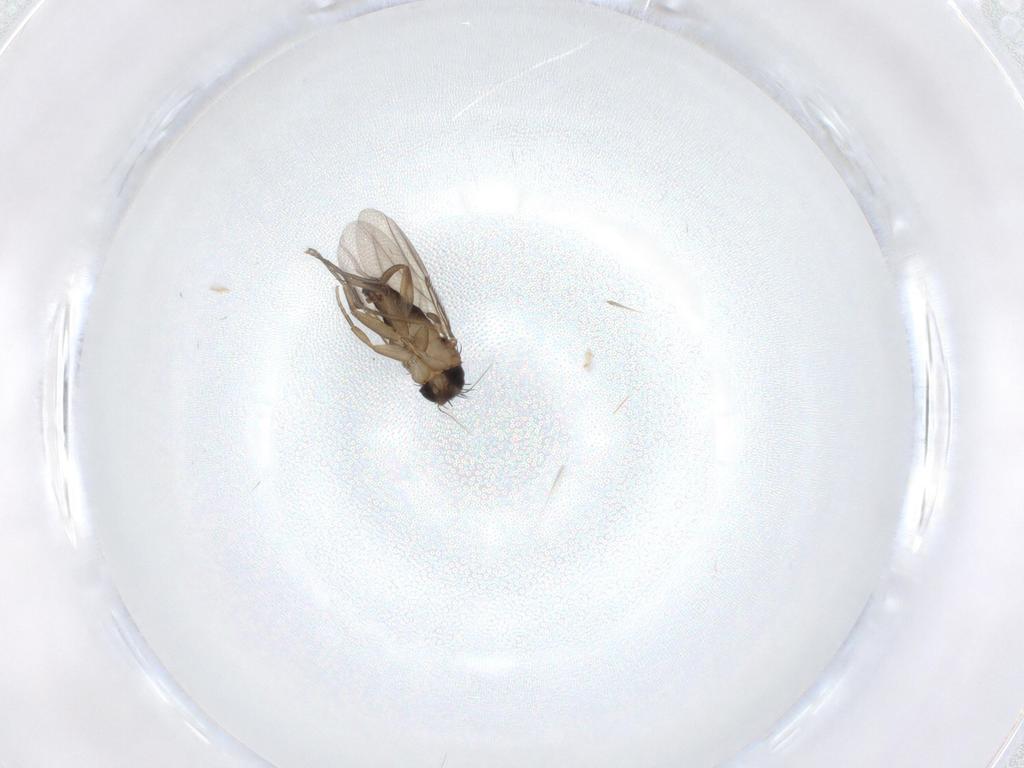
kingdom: Animalia
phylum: Arthropoda
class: Insecta
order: Diptera
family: Phoridae
